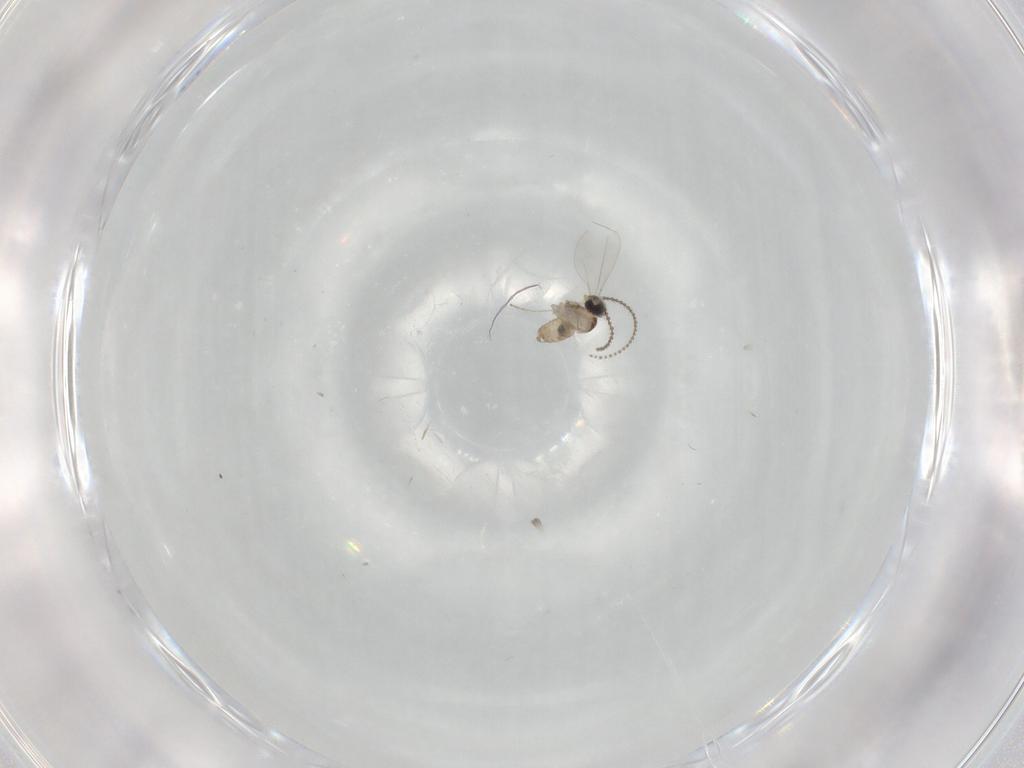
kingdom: Animalia
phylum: Arthropoda
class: Insecta
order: Diptera
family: Cecidomyiidae
